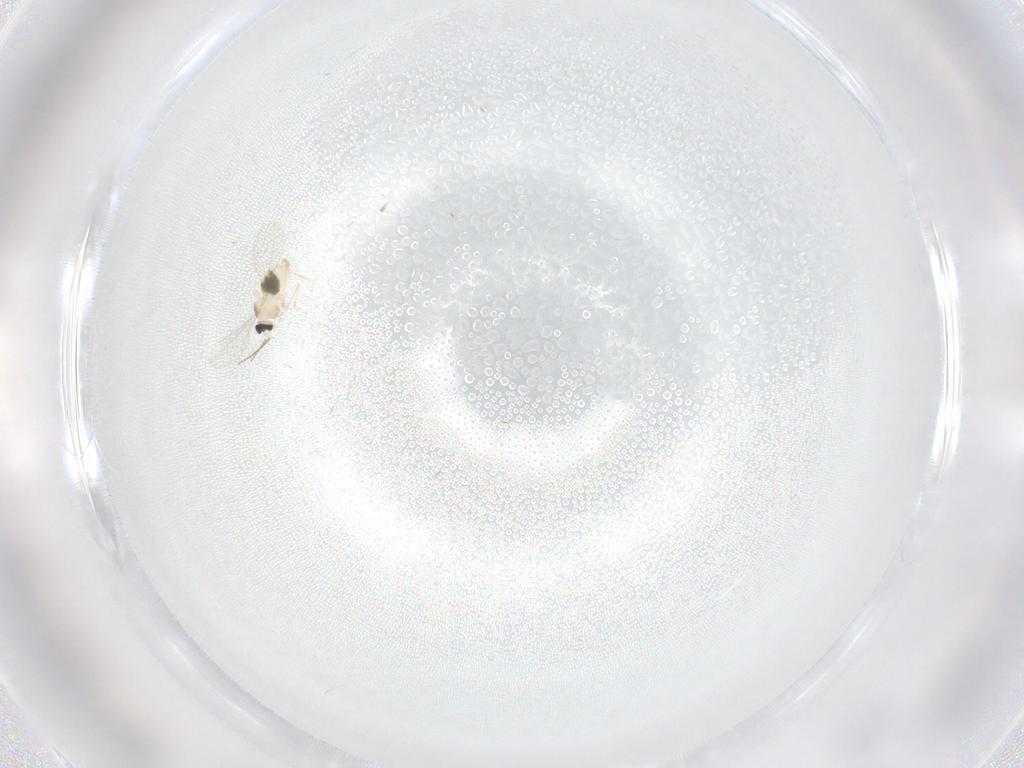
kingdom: Animalia
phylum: Arthropoda
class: Insecta
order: Diptera
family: Cecidomyiidae
